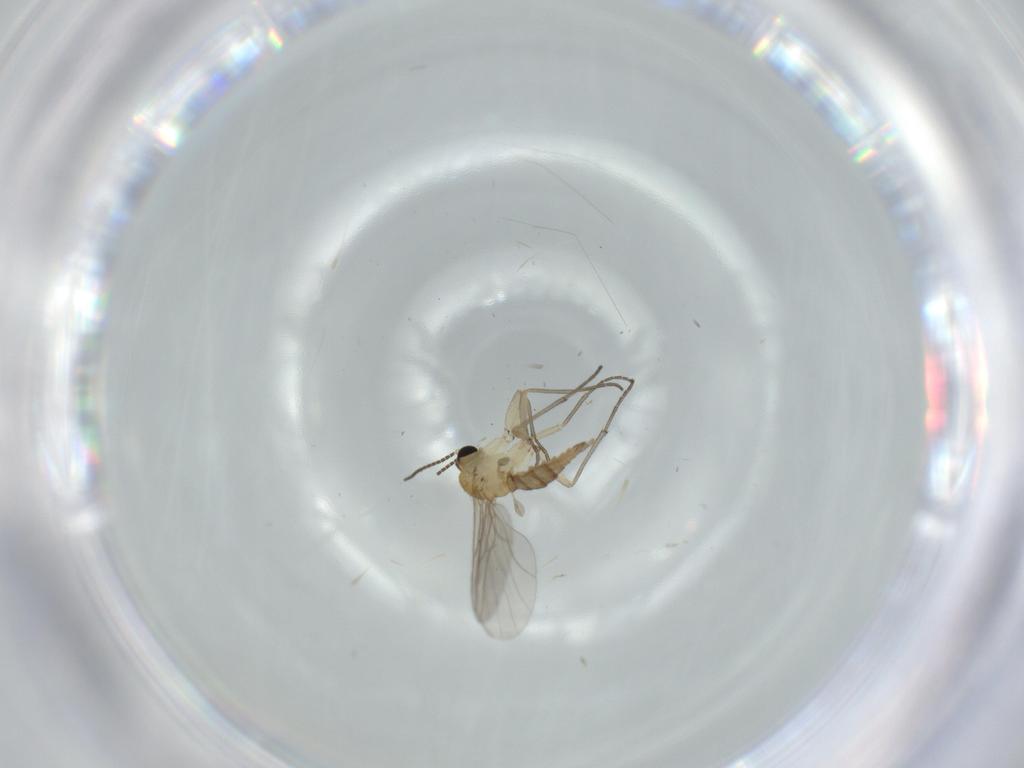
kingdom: Animalia
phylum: Arthropoda
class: Insecta
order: Diptera
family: Sciaridae
